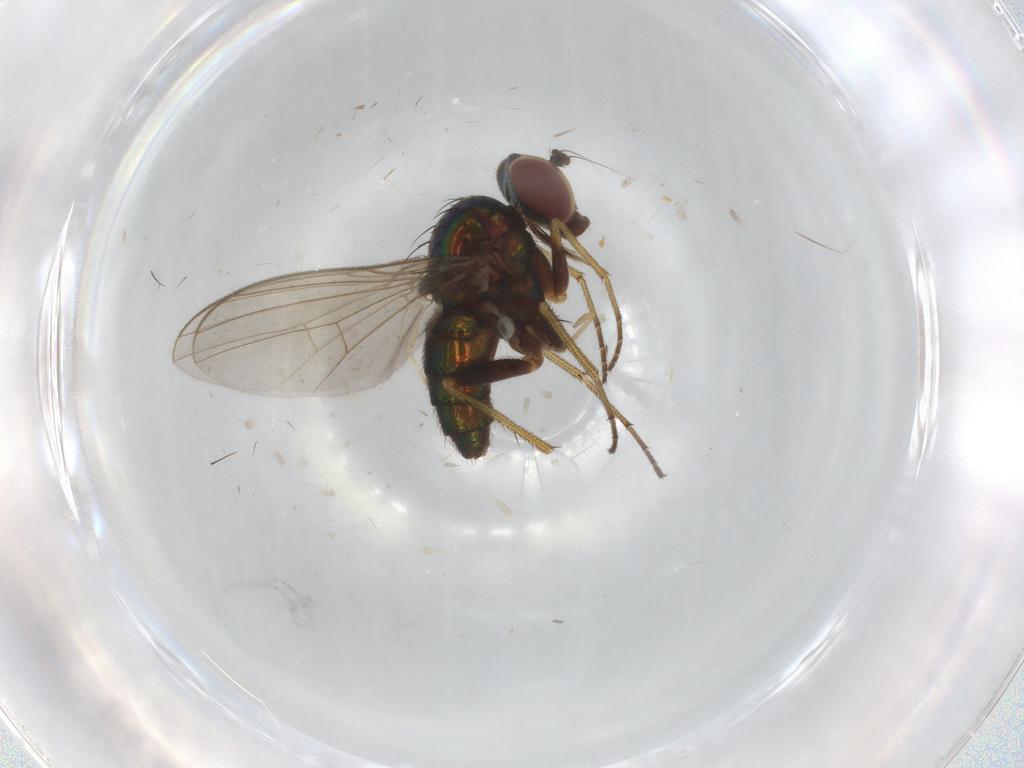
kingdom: Animalia
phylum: Arthropoda
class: Insecta
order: Diptera
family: Dolichopodidae
